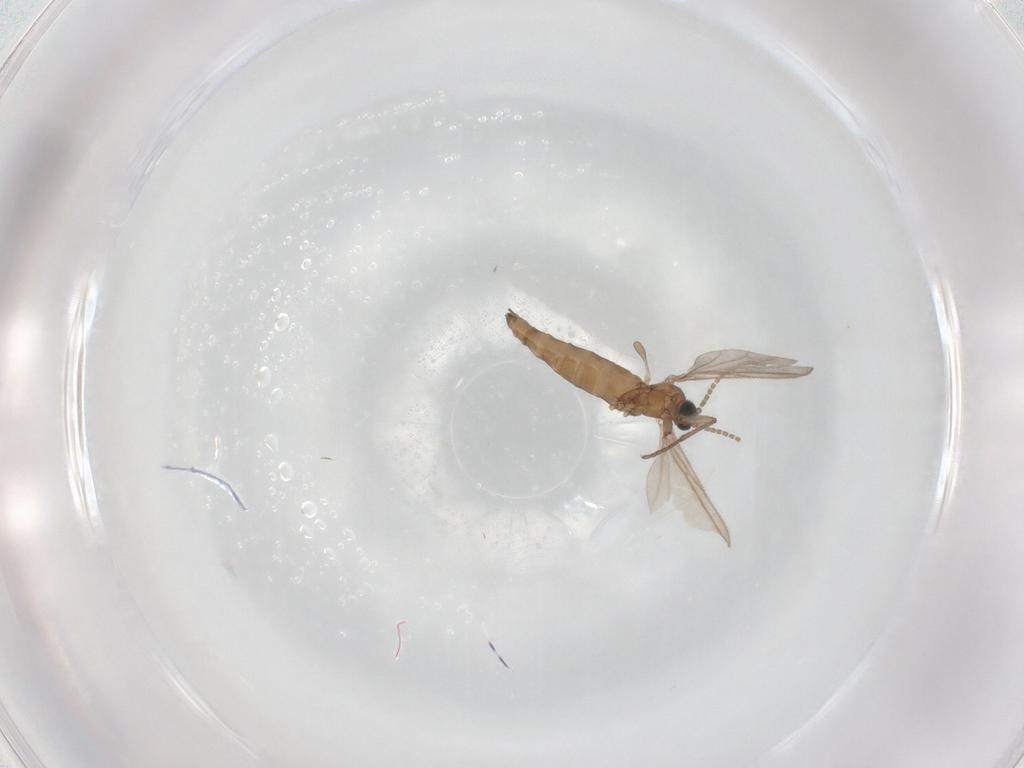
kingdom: Animalia
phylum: Arthropoda
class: Insecta
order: Diptera
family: Sciaridae
